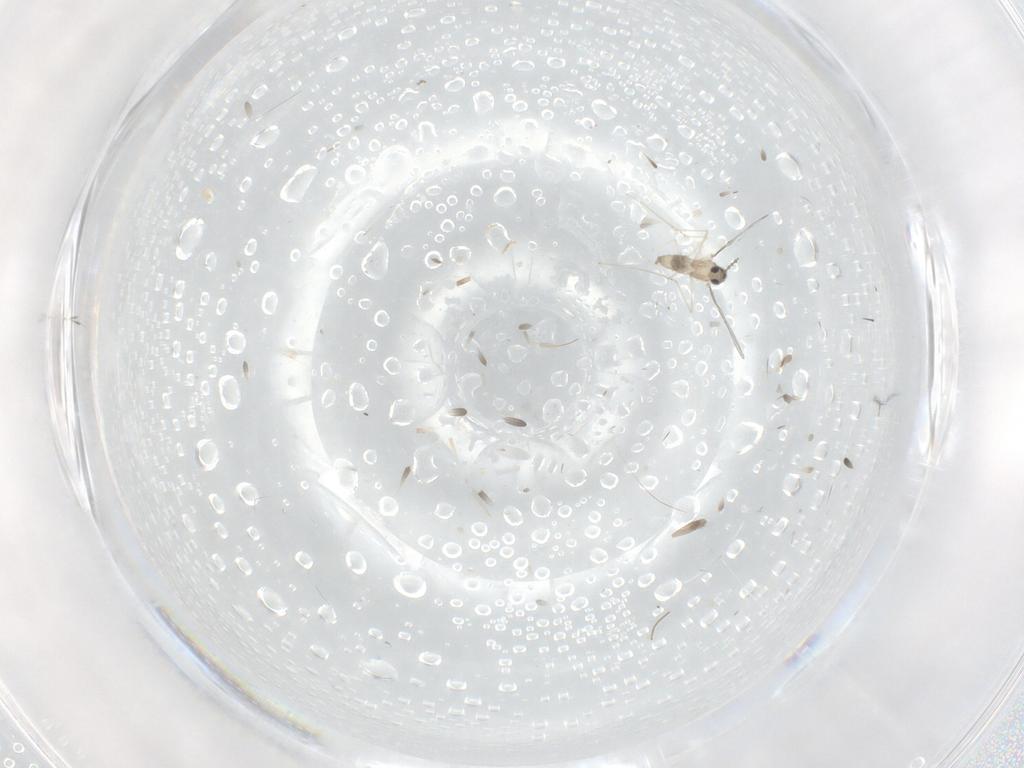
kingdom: Animalia
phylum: Arthropoda
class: Insecta
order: Diptera
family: Cecidomyiidae
